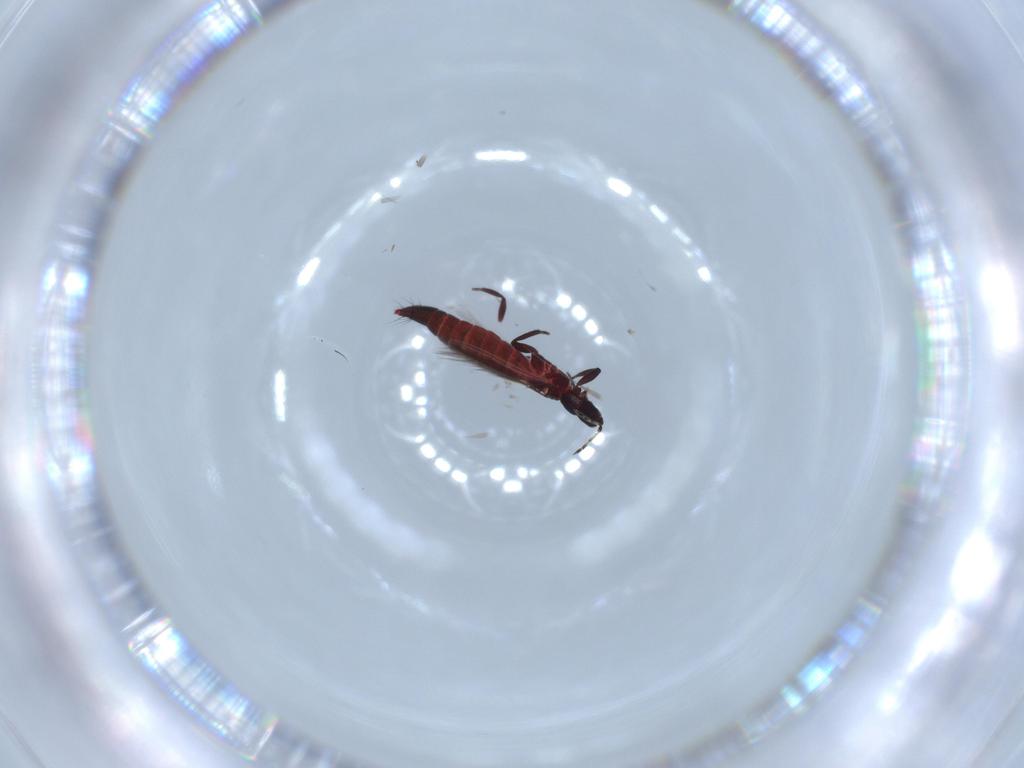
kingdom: Animalia
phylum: Arthropoda
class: Insecta
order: Thysanoptera
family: Aeolothripidae
